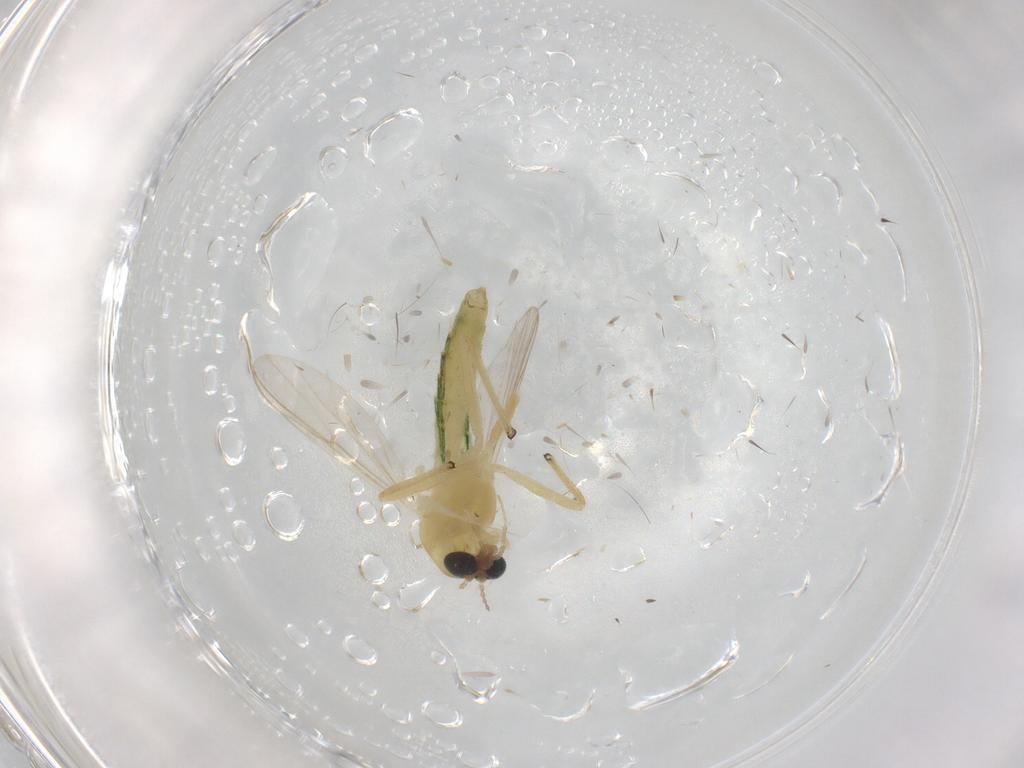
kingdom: Animalia
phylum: Arthropoda
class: Insecta
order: Diptera
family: Chironomidae
